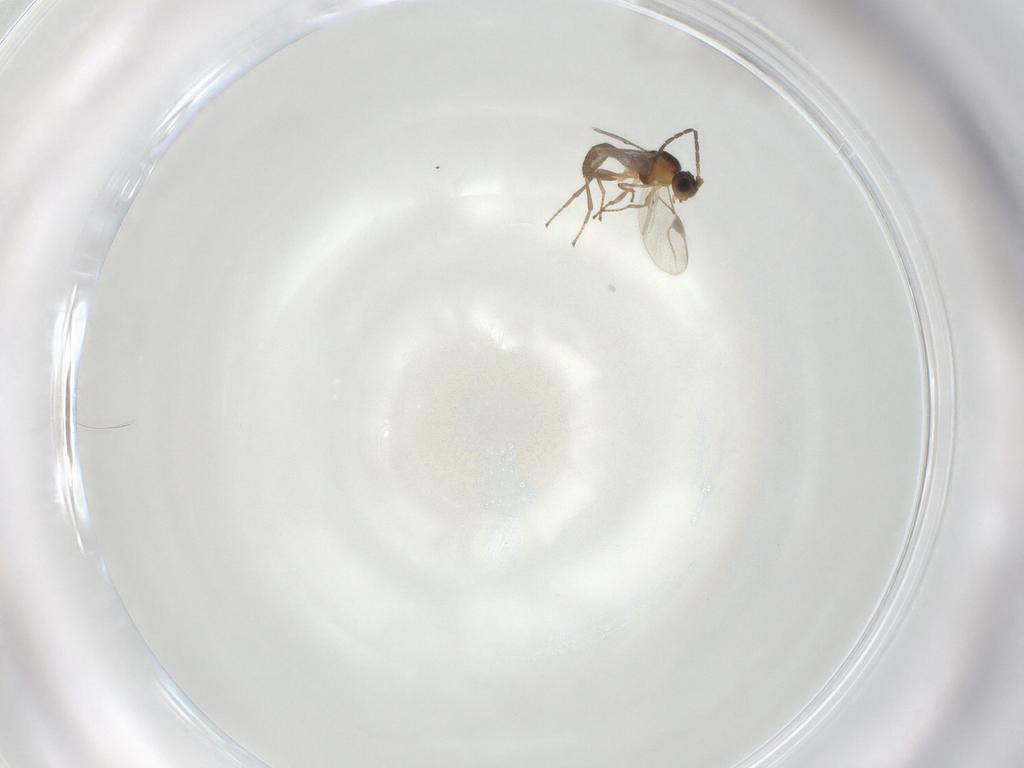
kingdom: Animalia
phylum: Arthropoda
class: Insecta
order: Hymenoptera
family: Braconidae
